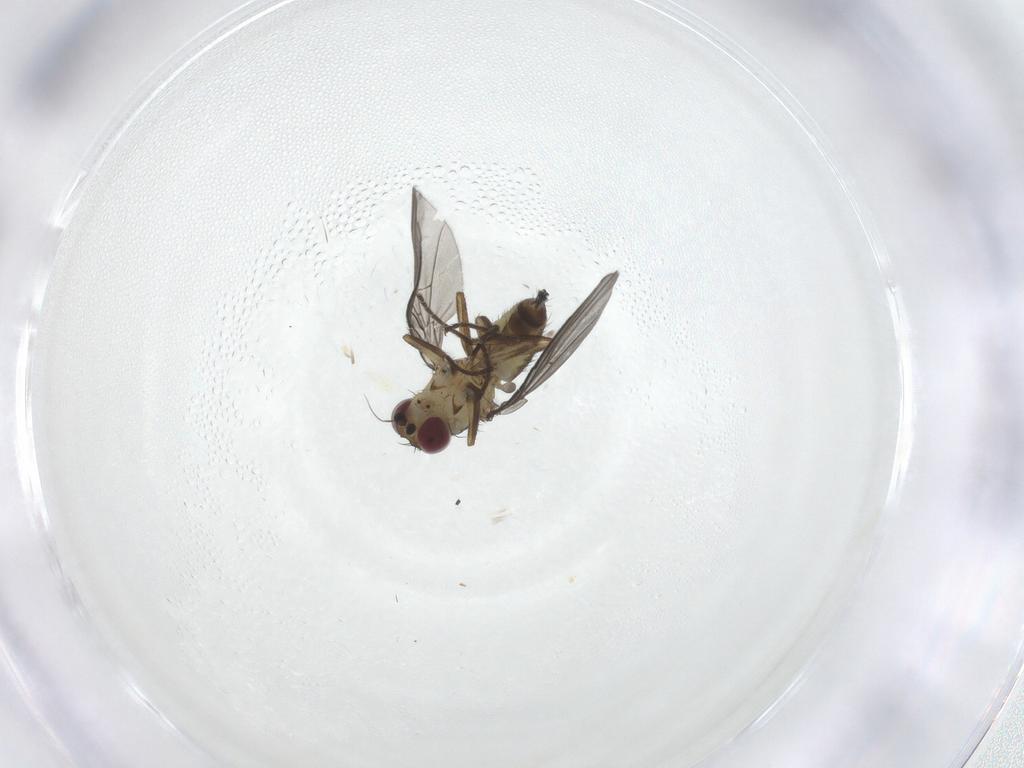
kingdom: Animalia
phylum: Arthropoda
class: Insecta
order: Diptera
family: Agromyzidae
